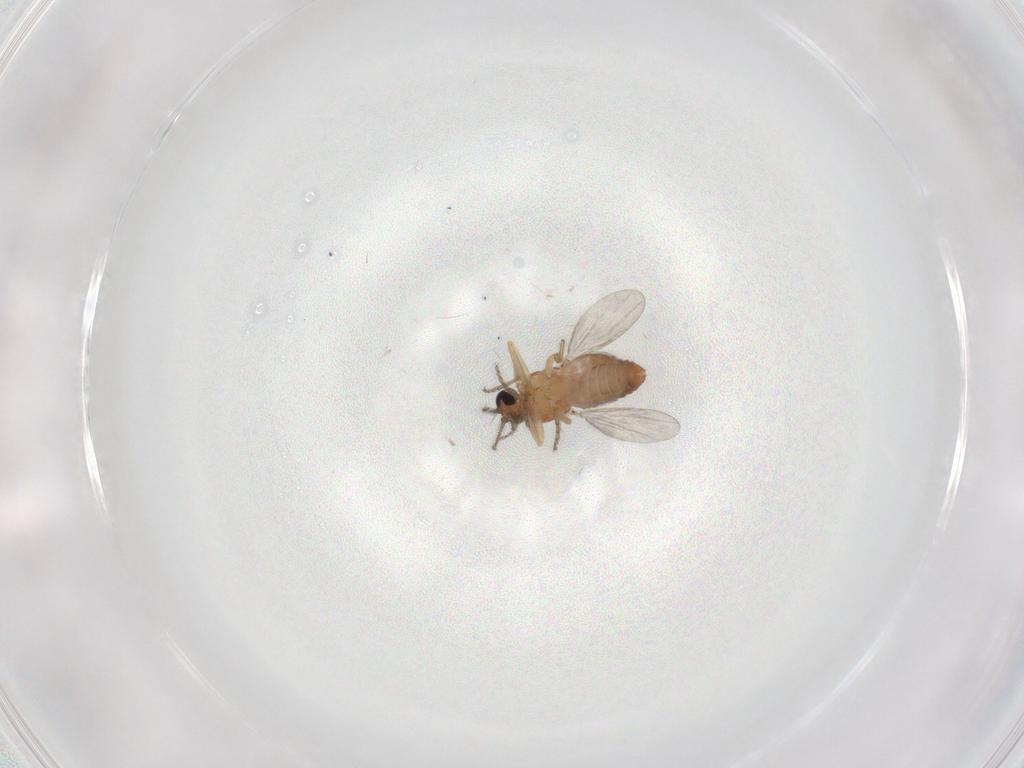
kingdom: Animalia
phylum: Arthropoda
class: Insecta
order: Diptera
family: Ceratopogonidae
